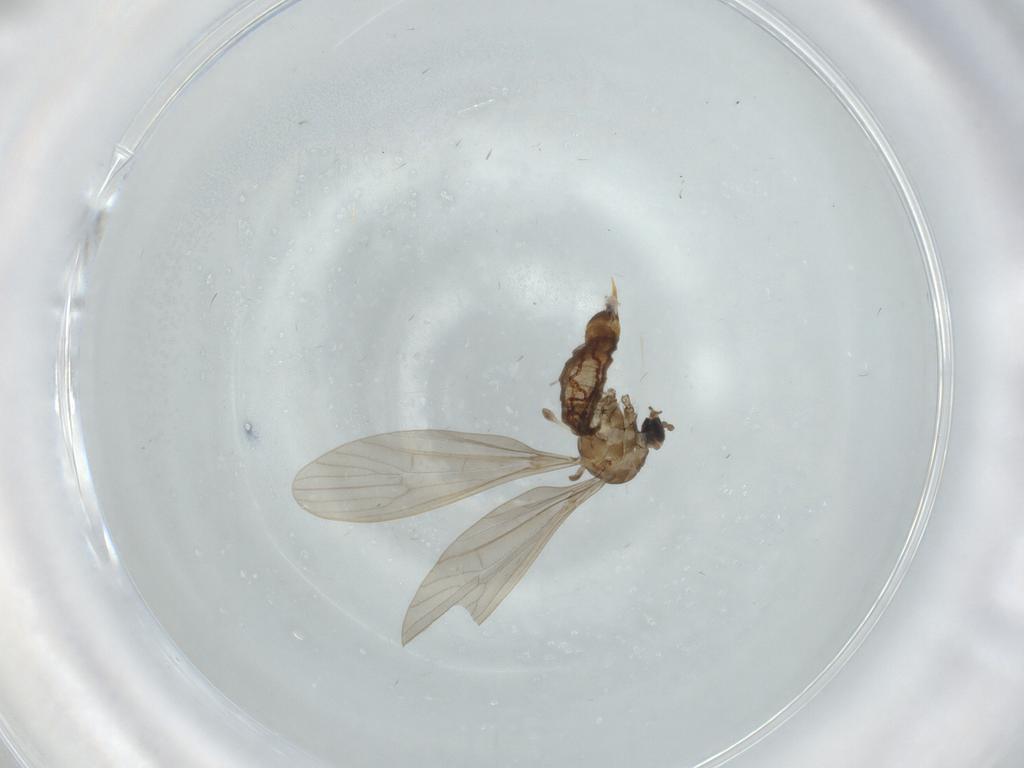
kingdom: Animalia
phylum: Arthropoda
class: Insecta
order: Diptera
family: Limoniidae
